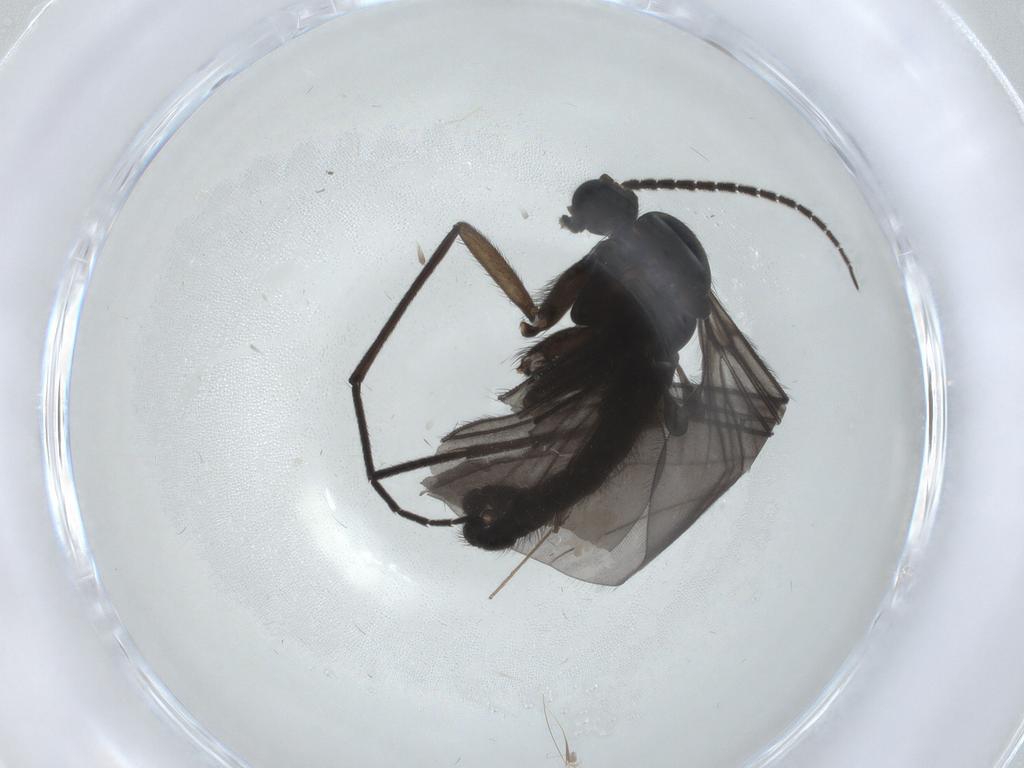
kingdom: Animalia
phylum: Arthropoda
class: Insecta
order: Diptera
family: Sciaridae
